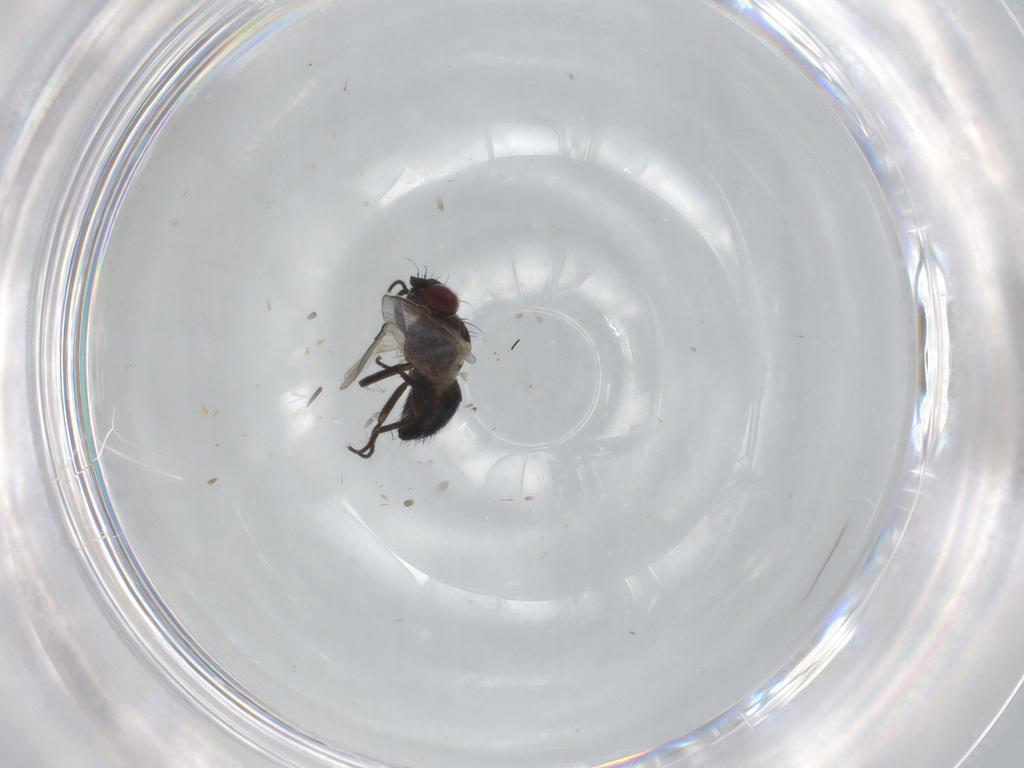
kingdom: Animalia
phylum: Arthropoda
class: Insecta
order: Diptera
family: Agromyzidae
